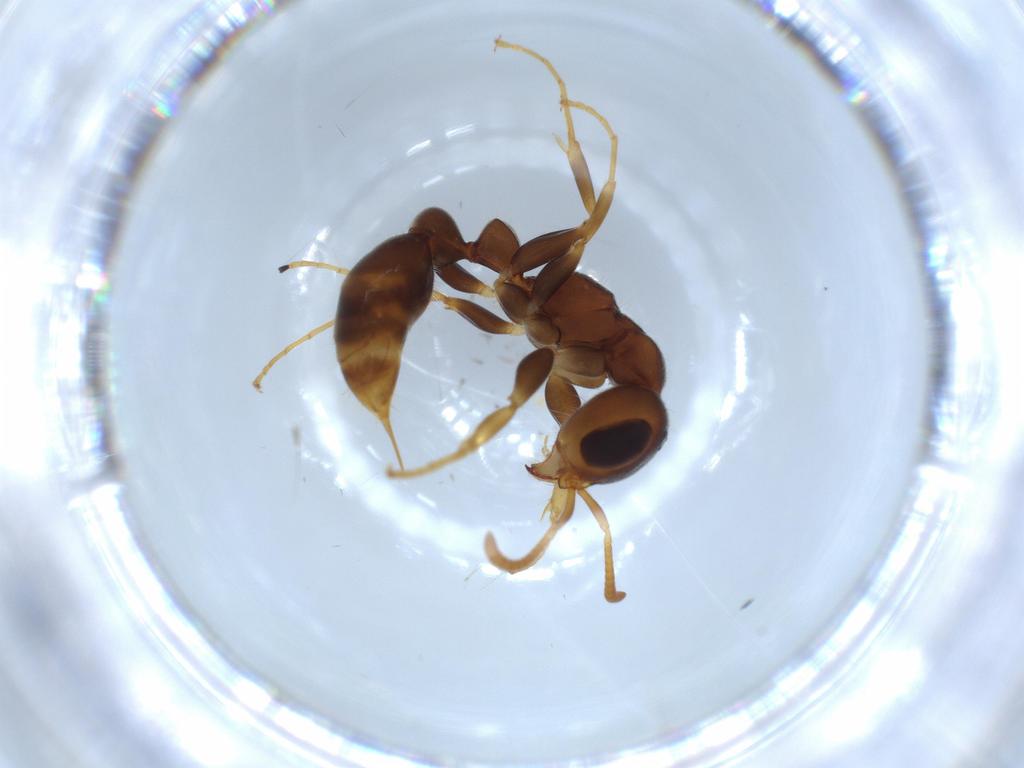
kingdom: Animalia
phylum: Arthropoda
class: Insecta
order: Hymenoptera
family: Formicidae
